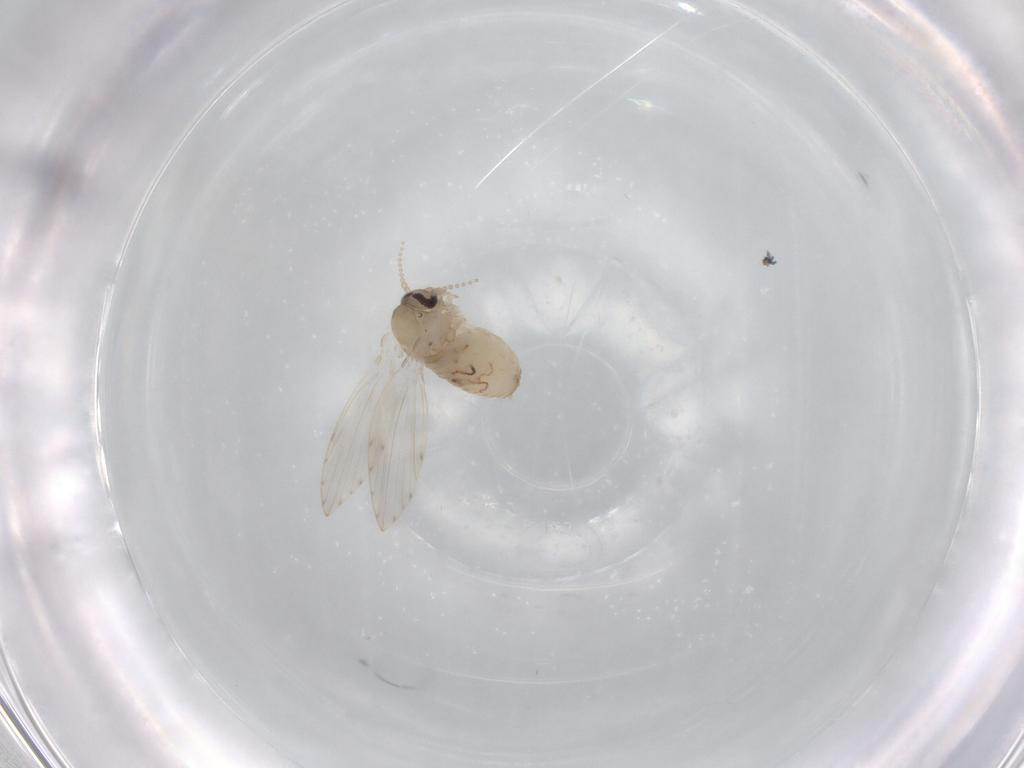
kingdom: Animalia
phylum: Arthropoda
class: Insecta
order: Diptera
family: Psychodidae
